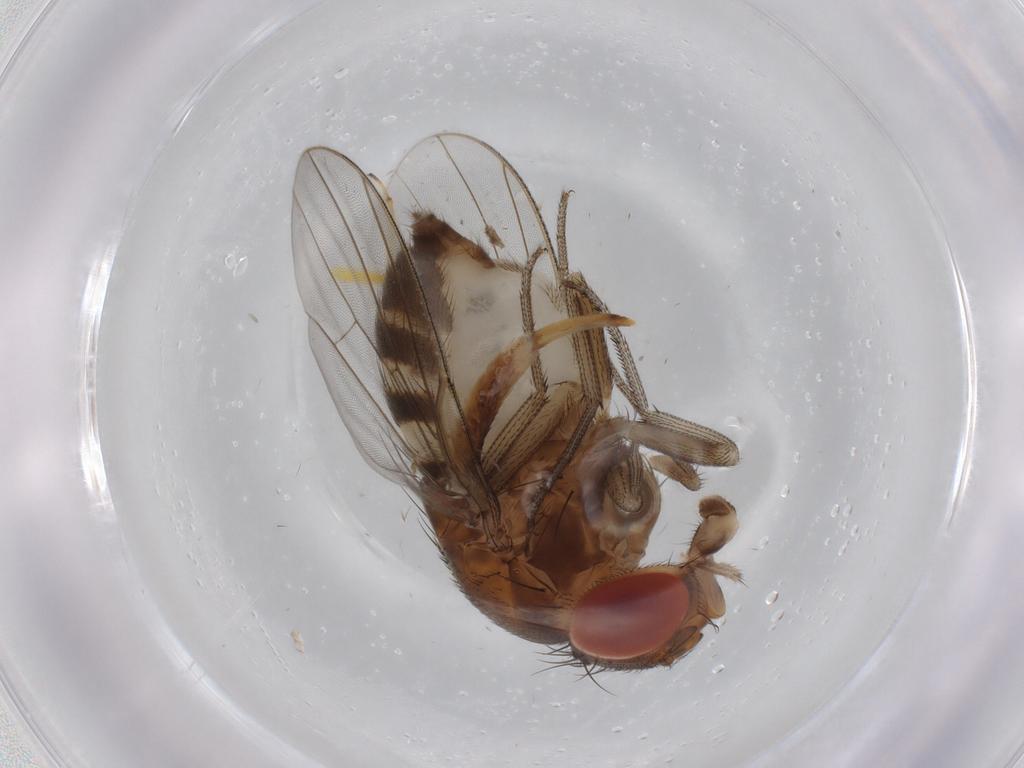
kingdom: Animalia
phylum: Arthropoda
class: Insecta
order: Diptera
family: Drosophilidae
